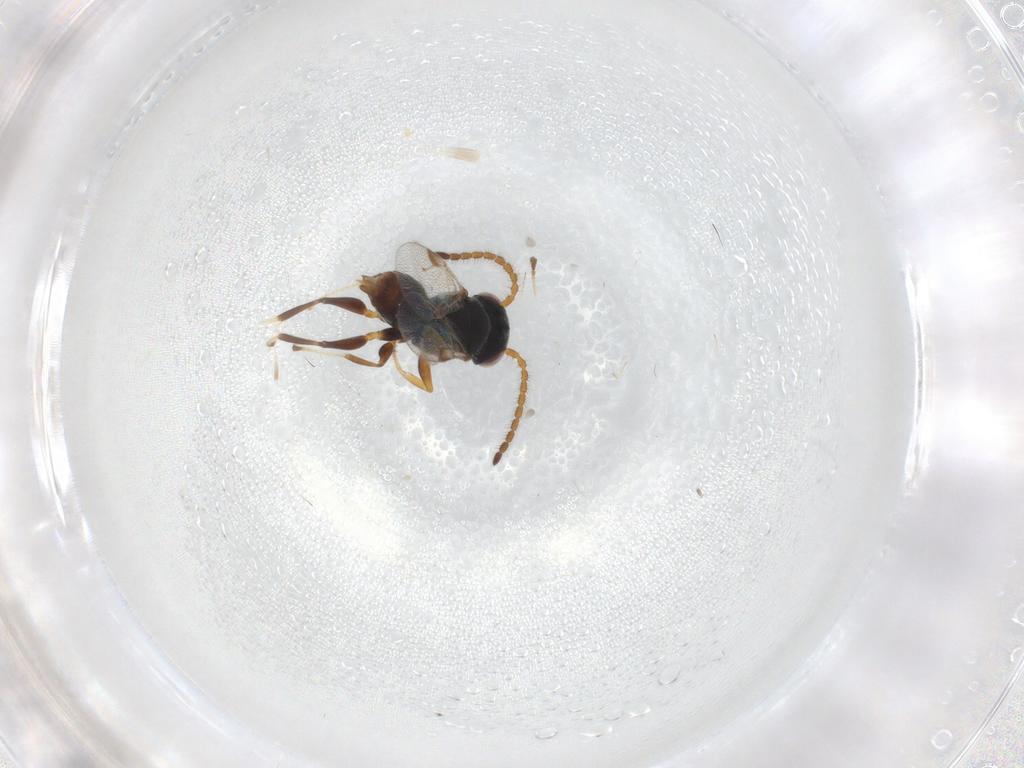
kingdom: Animalia
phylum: Arthropoda
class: Insecta
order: Hymenoptera
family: Dryinidae
